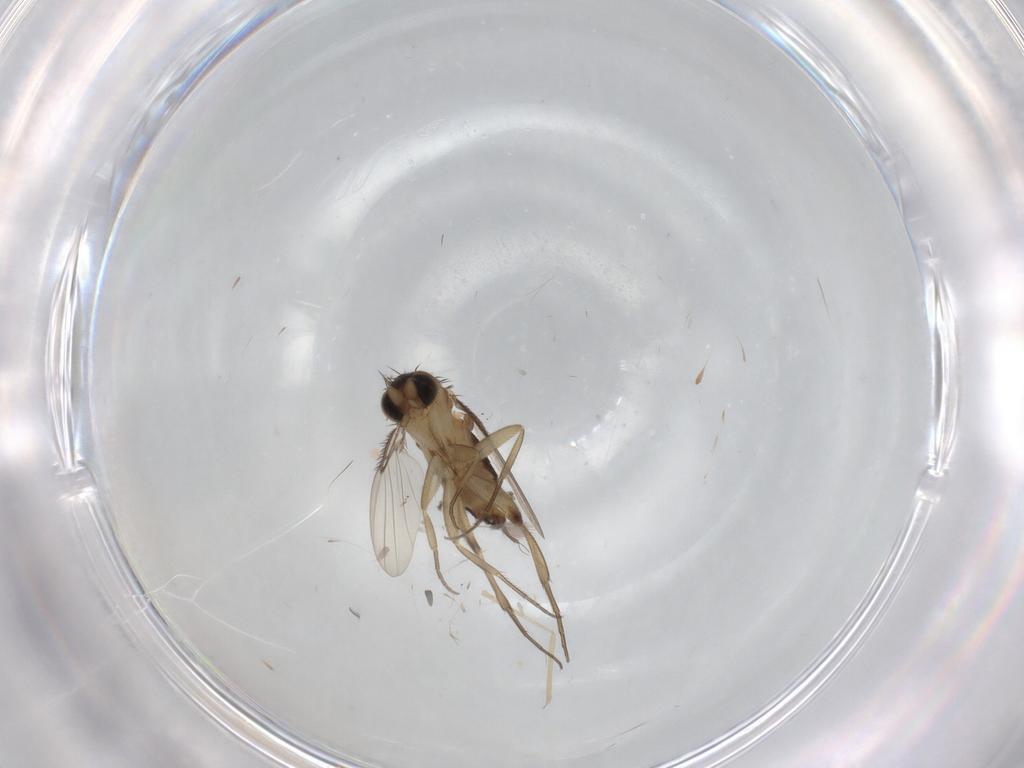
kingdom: Animalia
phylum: Arthropoda
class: Insecta
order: Diptera
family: Phoridae
